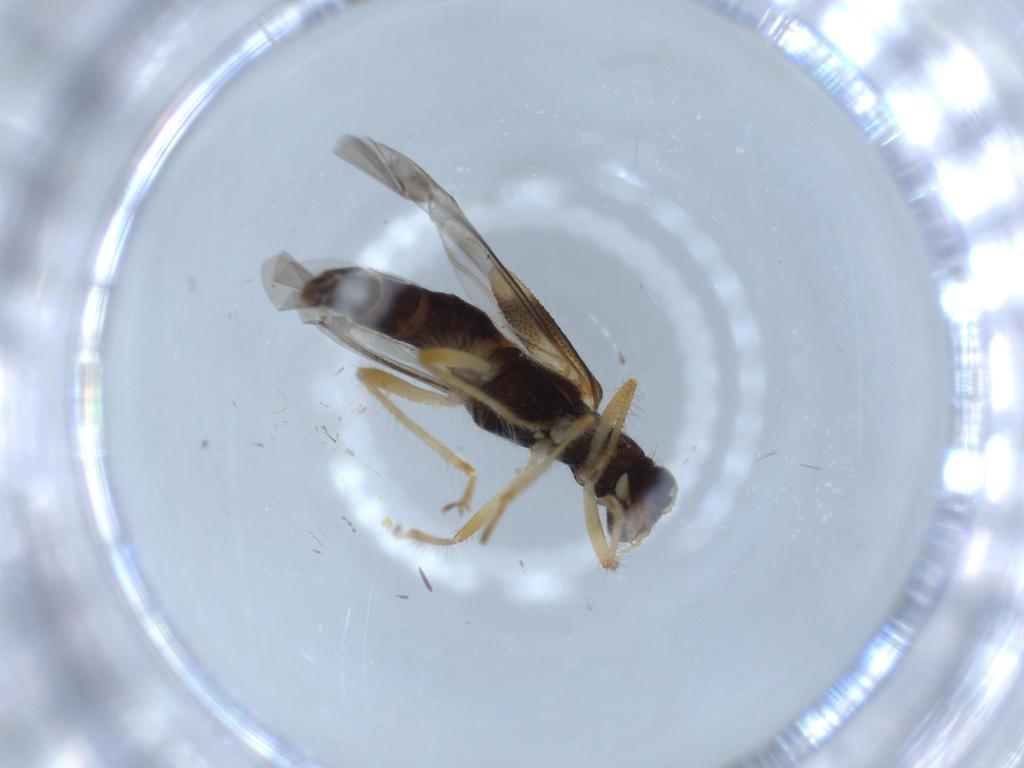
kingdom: Animalia
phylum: Arthropoda
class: Insecta
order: Coleoptera
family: Cleridae
